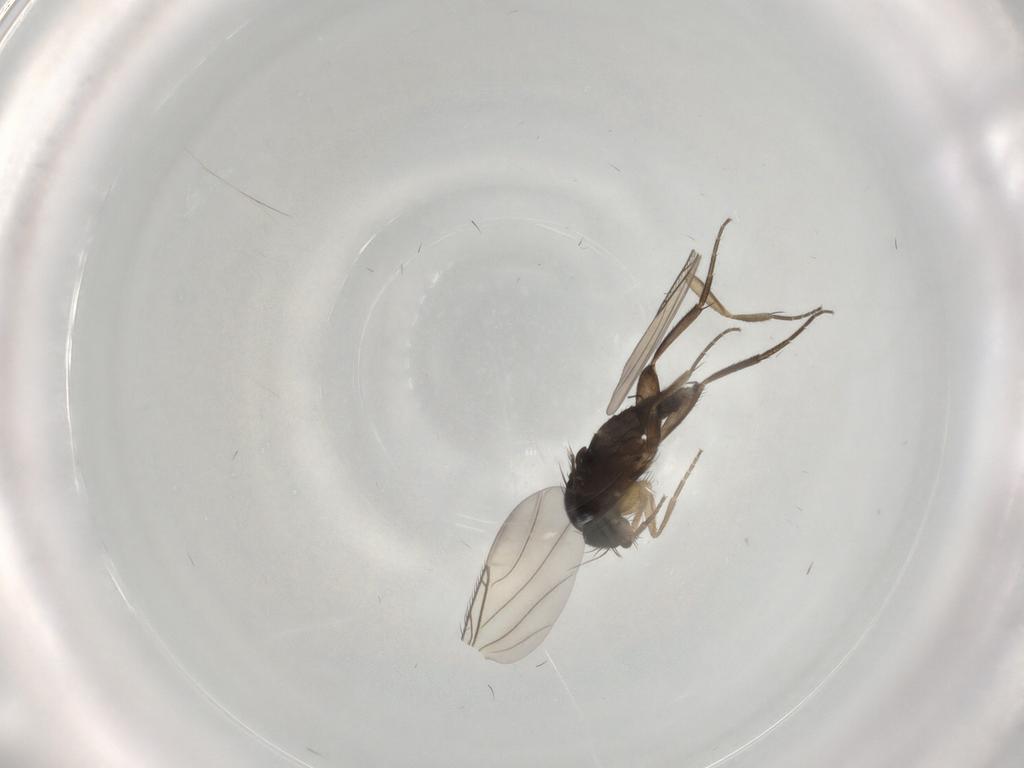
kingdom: Animalia
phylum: Arthropoda
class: Insecta
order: Diptera
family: Phoridae
